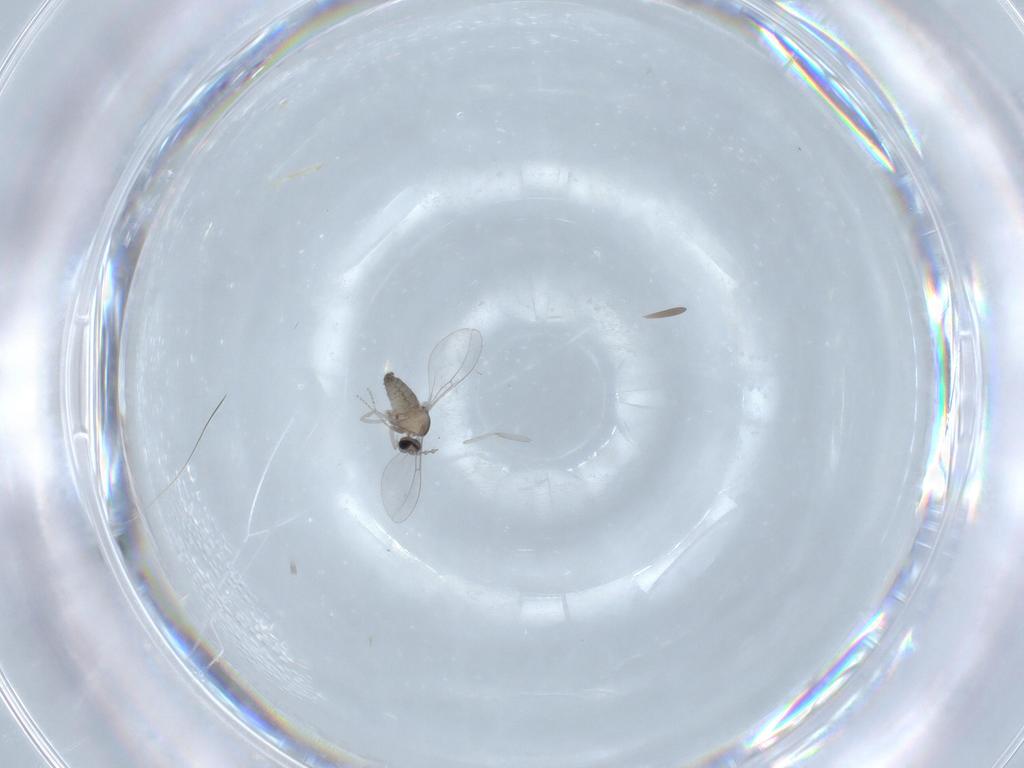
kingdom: Animalia
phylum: Arthropoda
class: Insecta
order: Diptera
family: Cecidomyiidae
